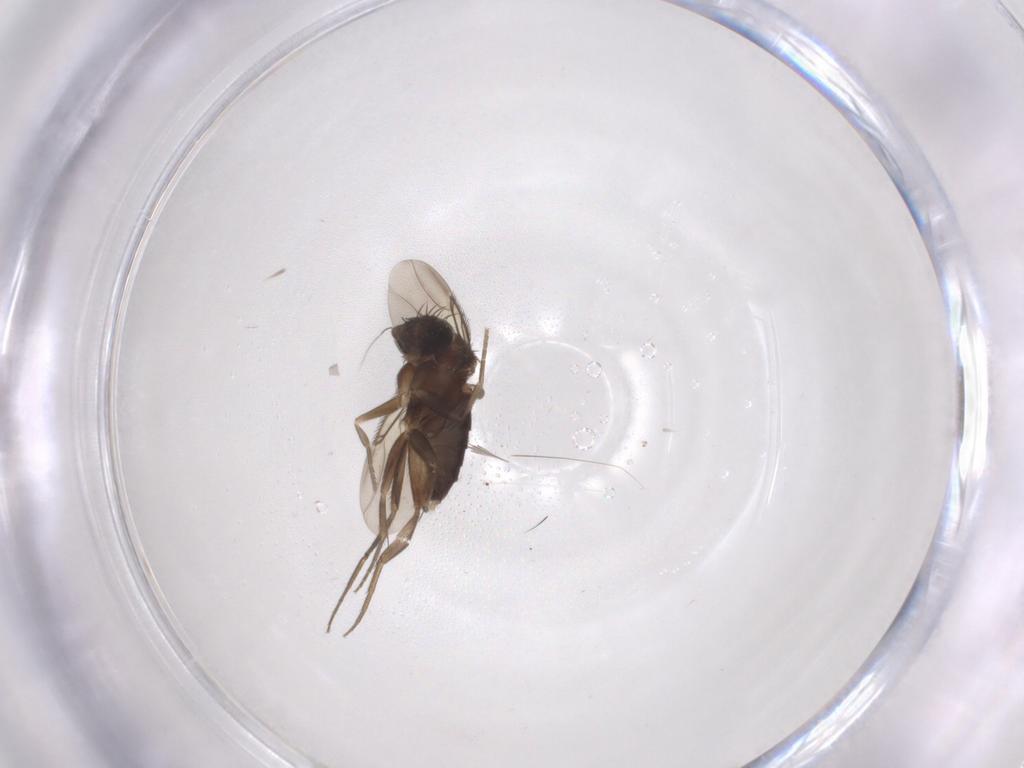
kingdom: Animalia
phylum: Arthropoda
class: Insecta
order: Diptera
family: Phoridae
